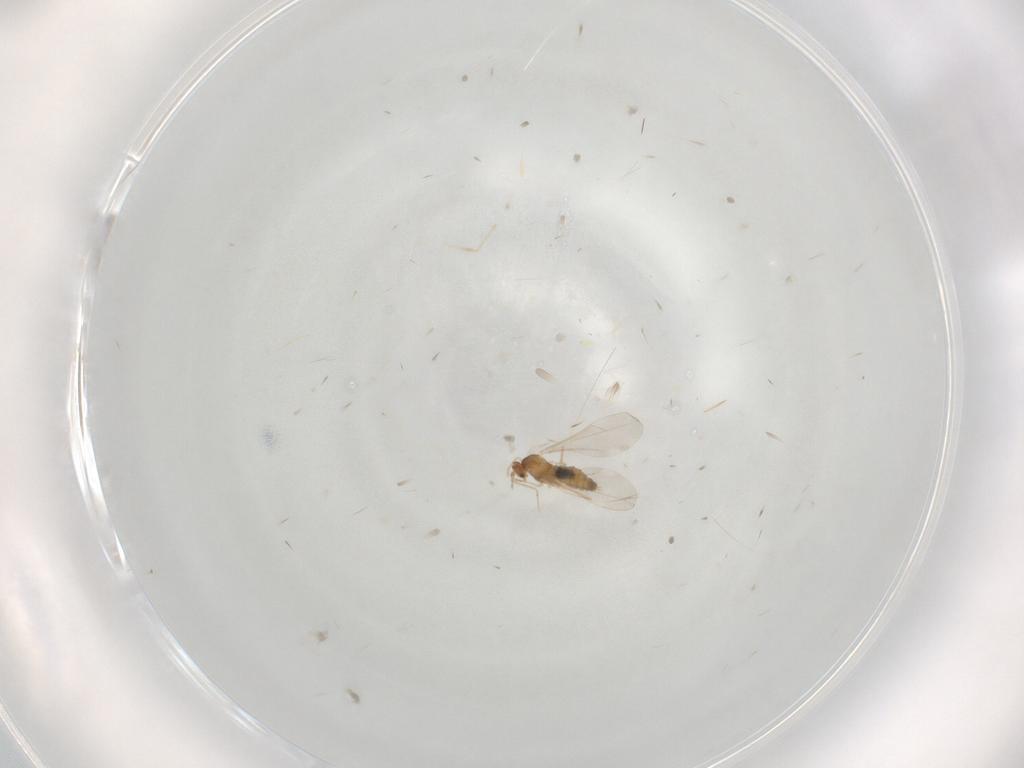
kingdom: Animalia
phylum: Arthropoda
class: Insecta
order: Diptera
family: Cecidomyiidae
